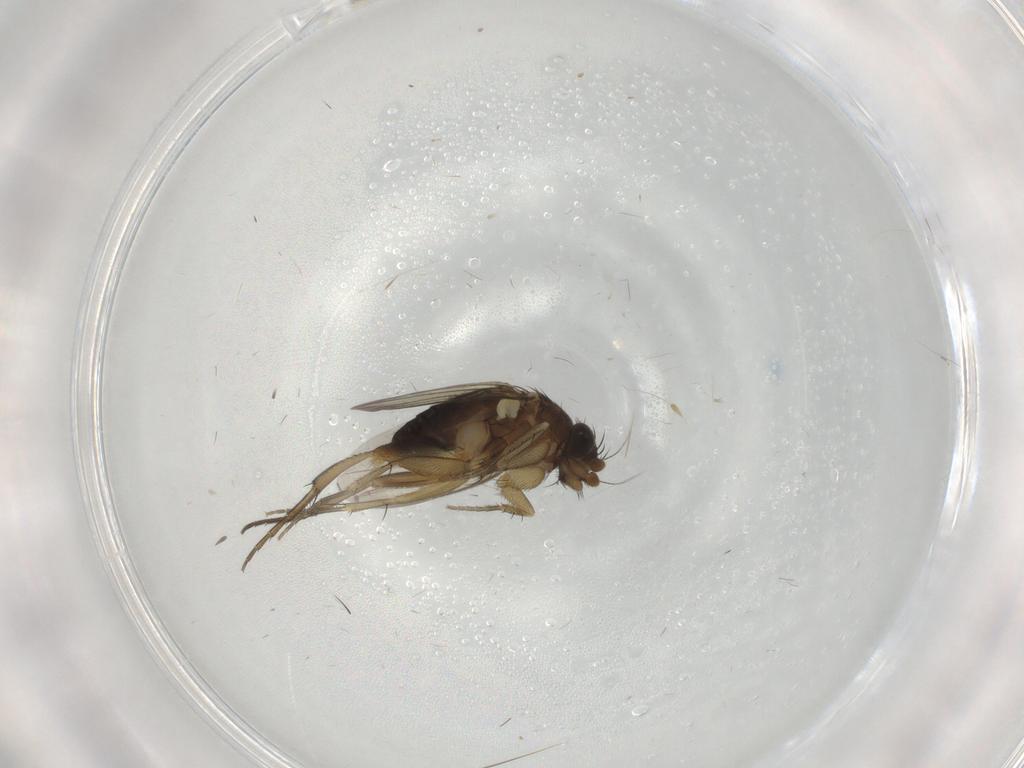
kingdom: Animalia
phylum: Arthropoda
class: Insecta
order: Diptera
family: Phoridae
